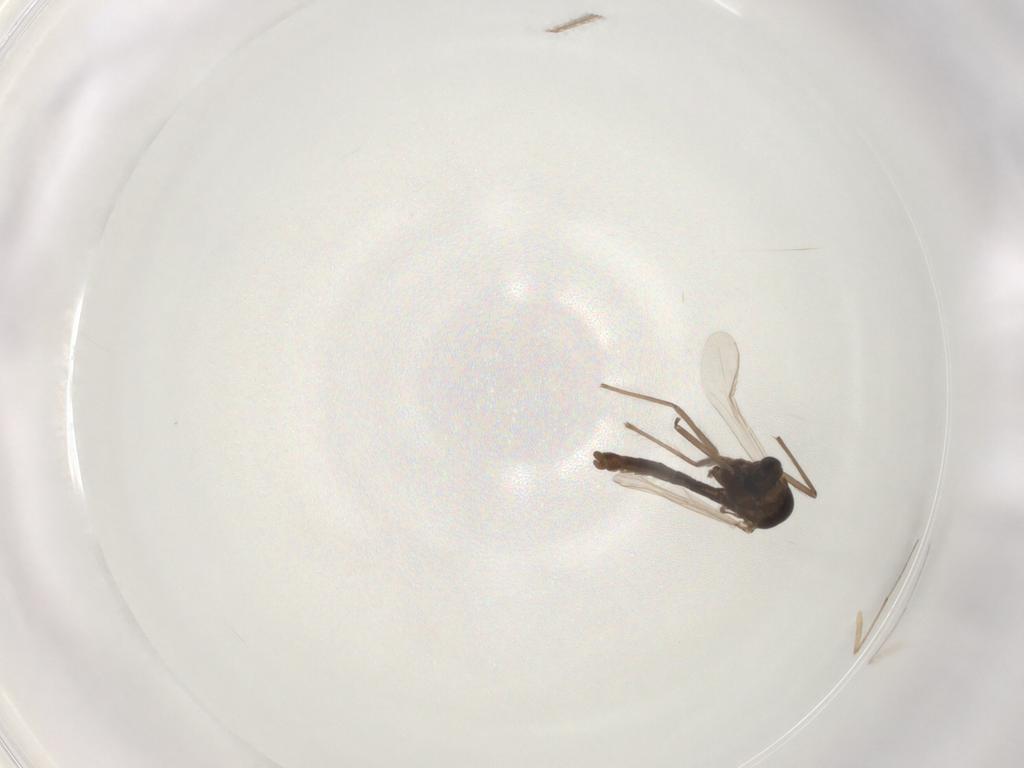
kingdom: Animalia
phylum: Arthropoda
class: Insecta
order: Diptera
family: Chironomidae
